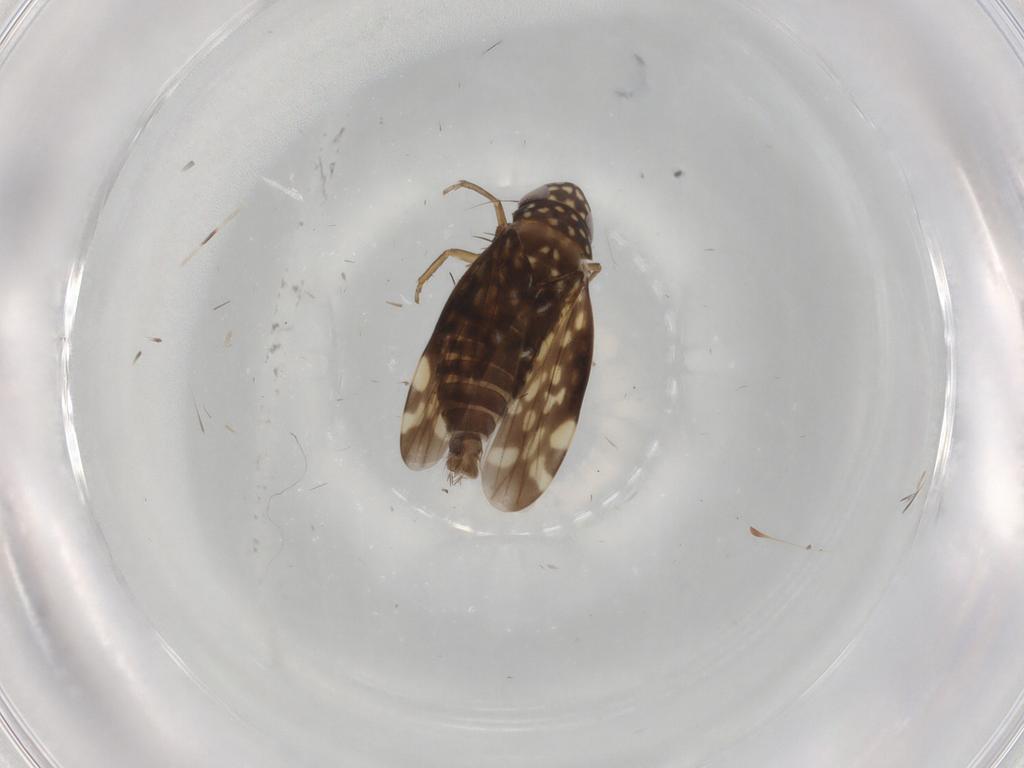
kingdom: Animalia
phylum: Arthropoda
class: Insecta
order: Hemiptera
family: Cicadellidae
